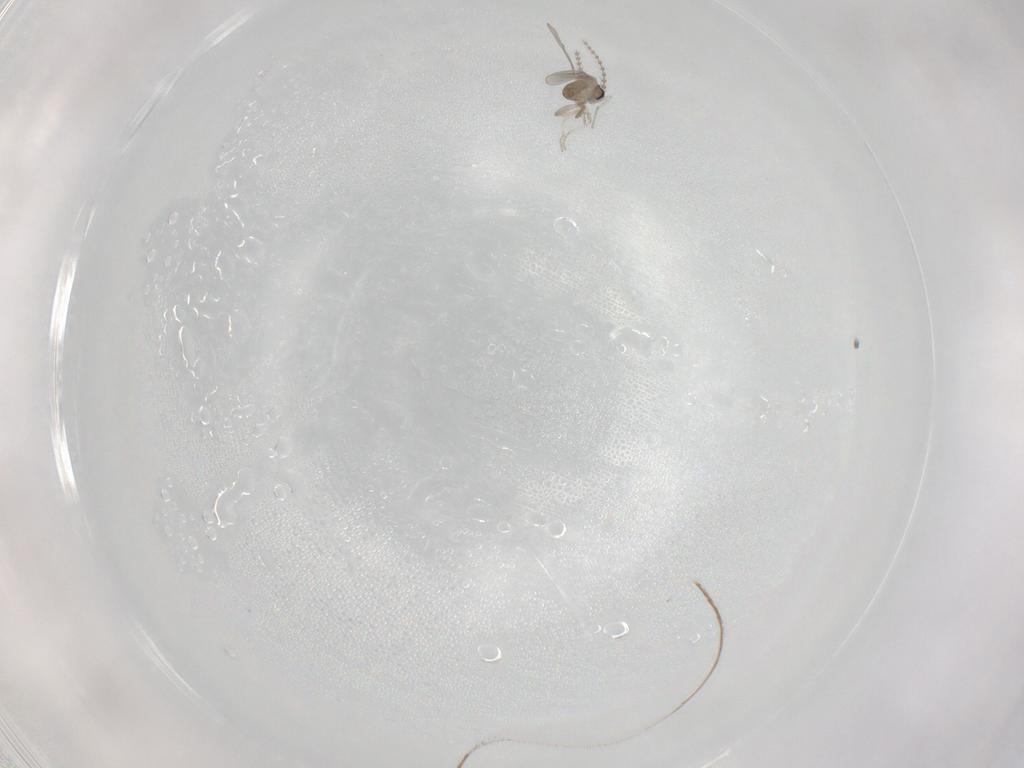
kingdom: Animalia
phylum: Arthropoda
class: Insecta
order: Diptera
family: Cecidomyiidae
